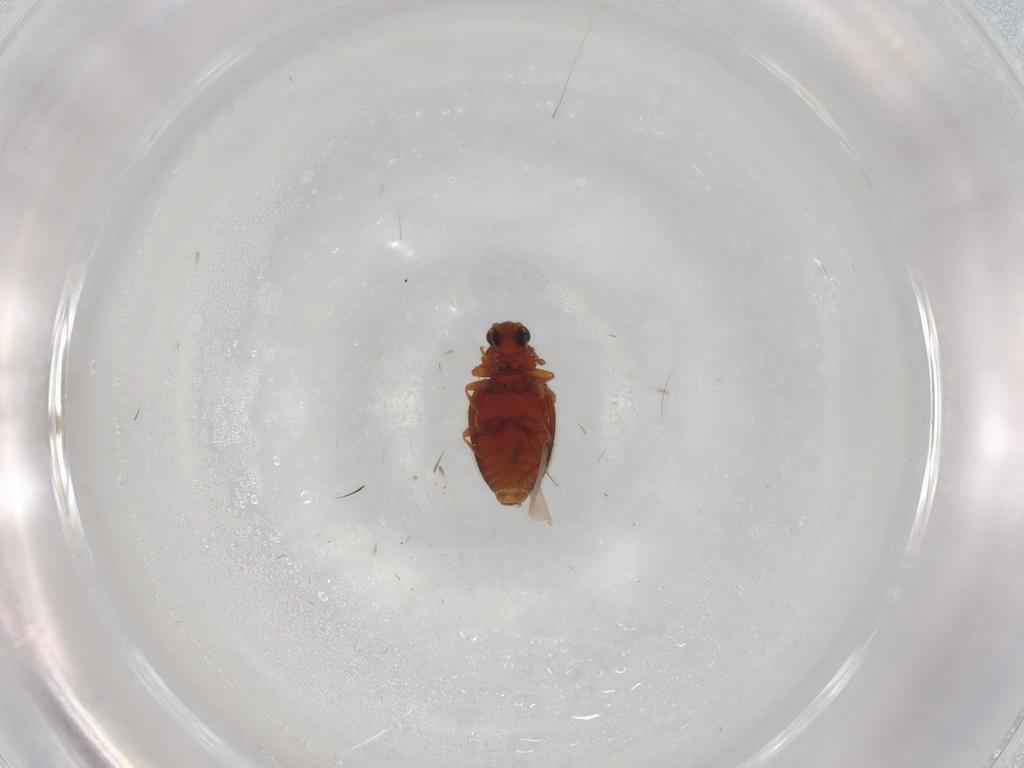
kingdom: Animalia
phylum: Arthropoda
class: Insecta
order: Coleoptera
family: Latridiidae
